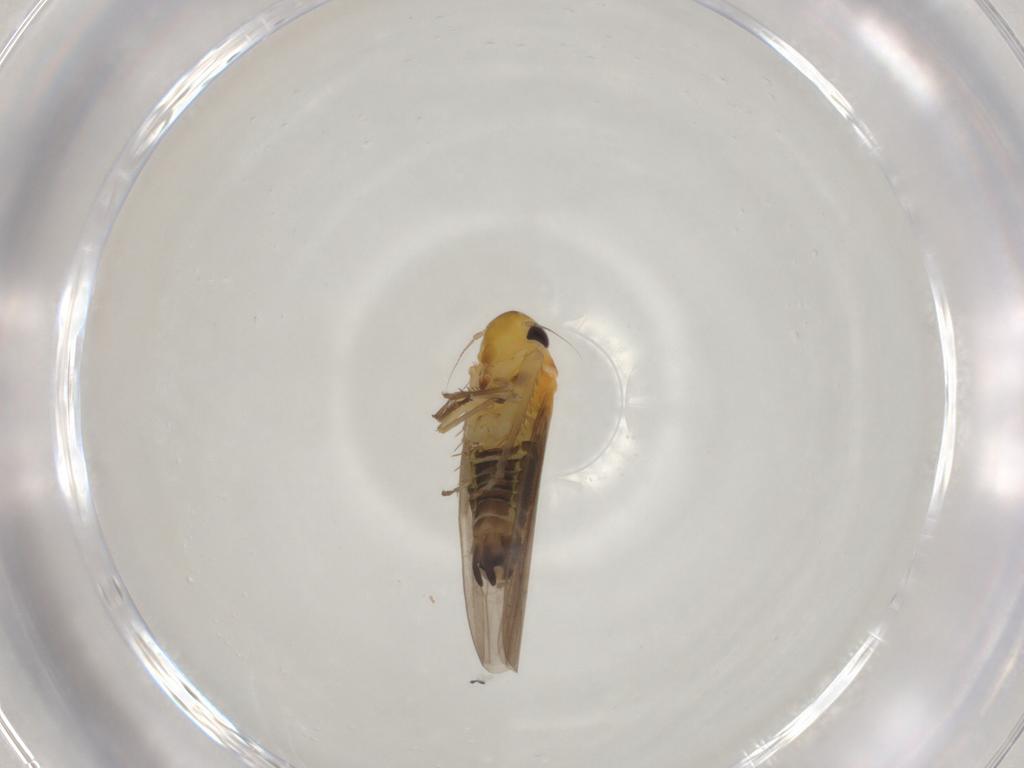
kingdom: Animalia
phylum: Arthropoda
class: Insecta
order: Hemiptera
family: Cicadellidae
